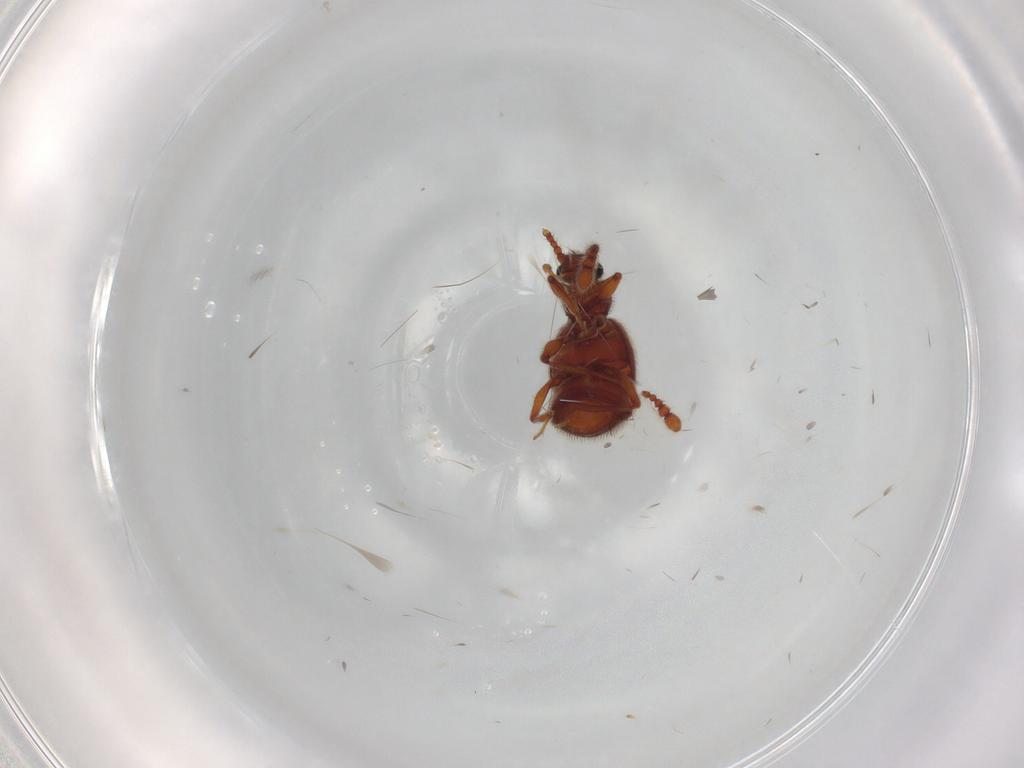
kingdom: Animalia
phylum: Arthropoda
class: Insecta
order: Coleoptera
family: Staphylinidae
